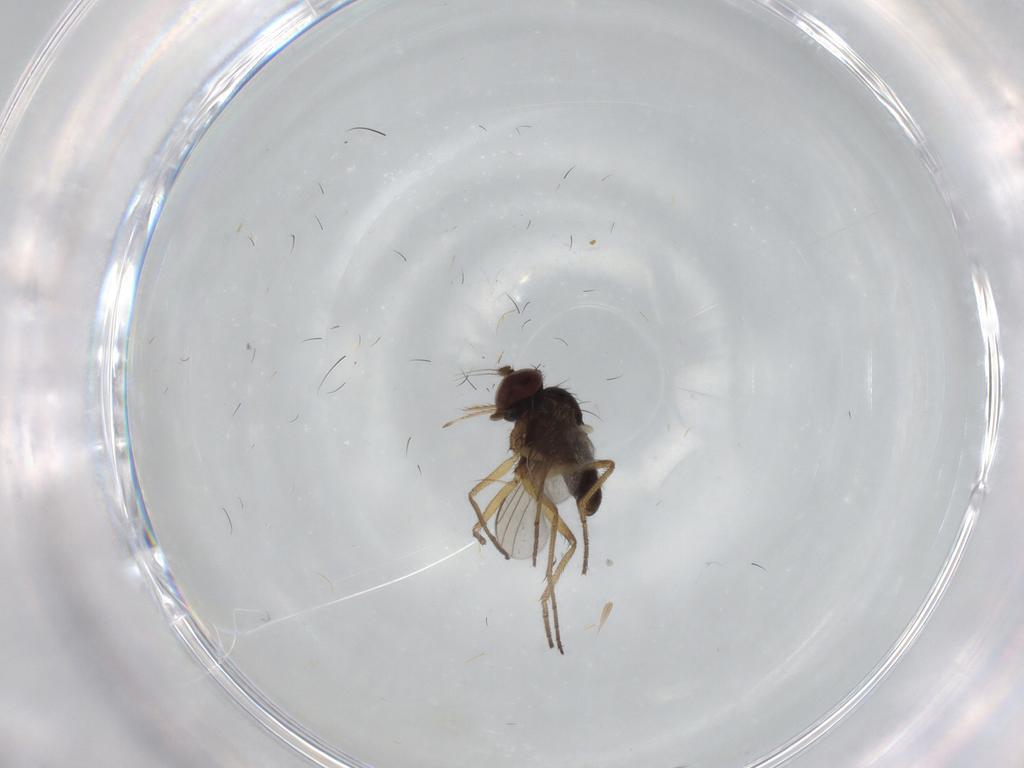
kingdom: Animalia
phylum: Arthropoda
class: Insecta
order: Diptera
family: Dolichopodidae
